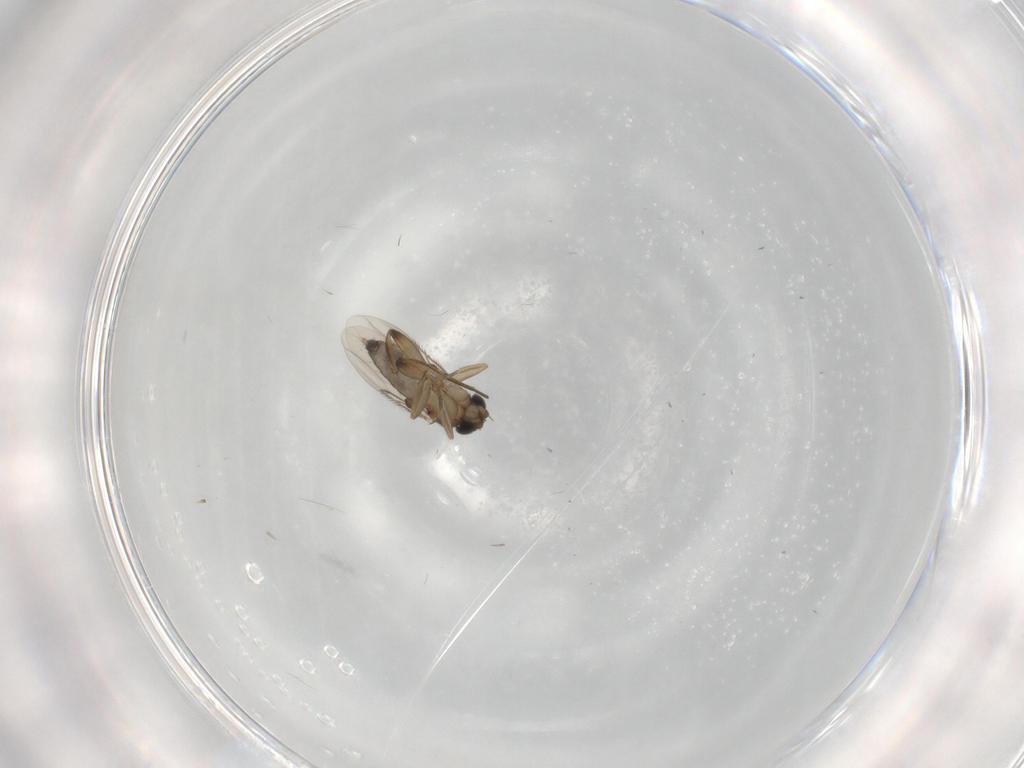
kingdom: Animalia
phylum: Arthropoda
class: Insecta
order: Diptera
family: Phoridae
